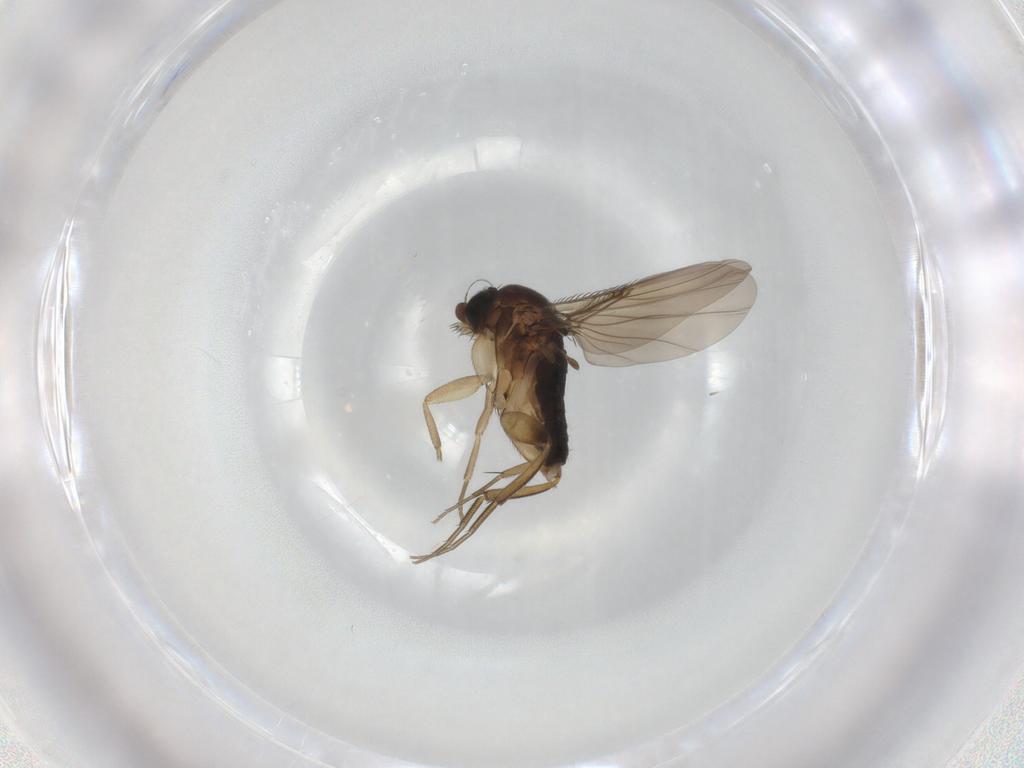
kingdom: Animalia
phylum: Arthropoda
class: Insecta
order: Diptera
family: Phoridae
